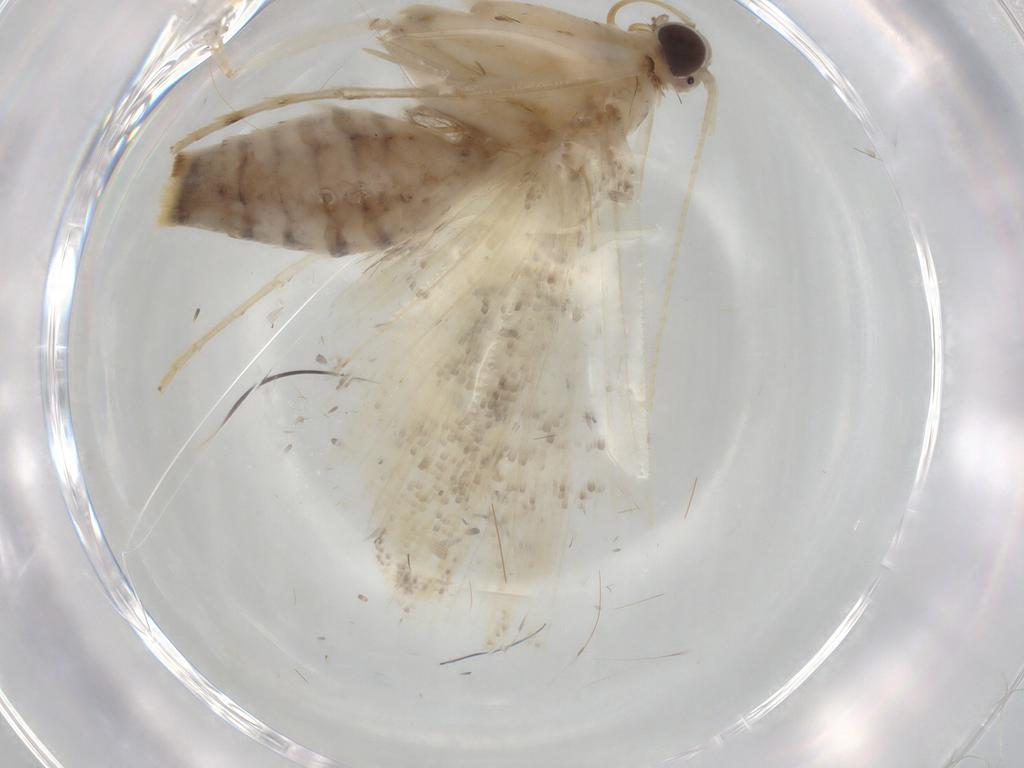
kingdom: Animalia
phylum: Arthropoda
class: Insecta
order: Lepidoptera
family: Crambidae
